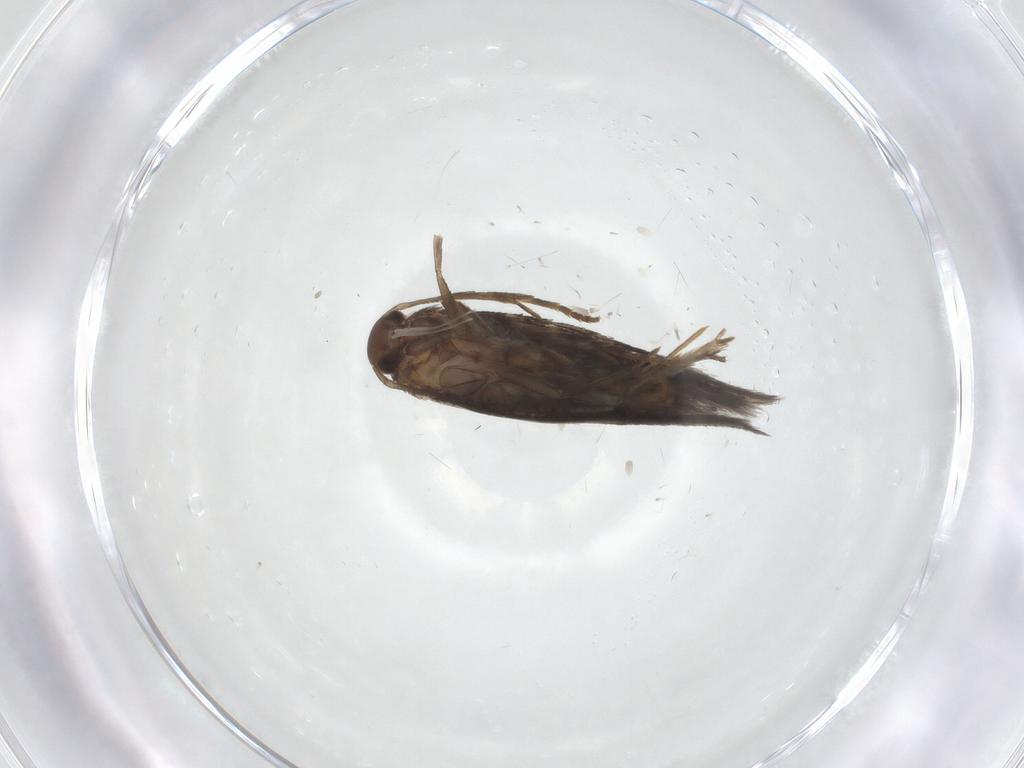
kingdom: Animalia
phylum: Arthropoda
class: Insecta
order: Lepidoptera
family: Elachistidae
